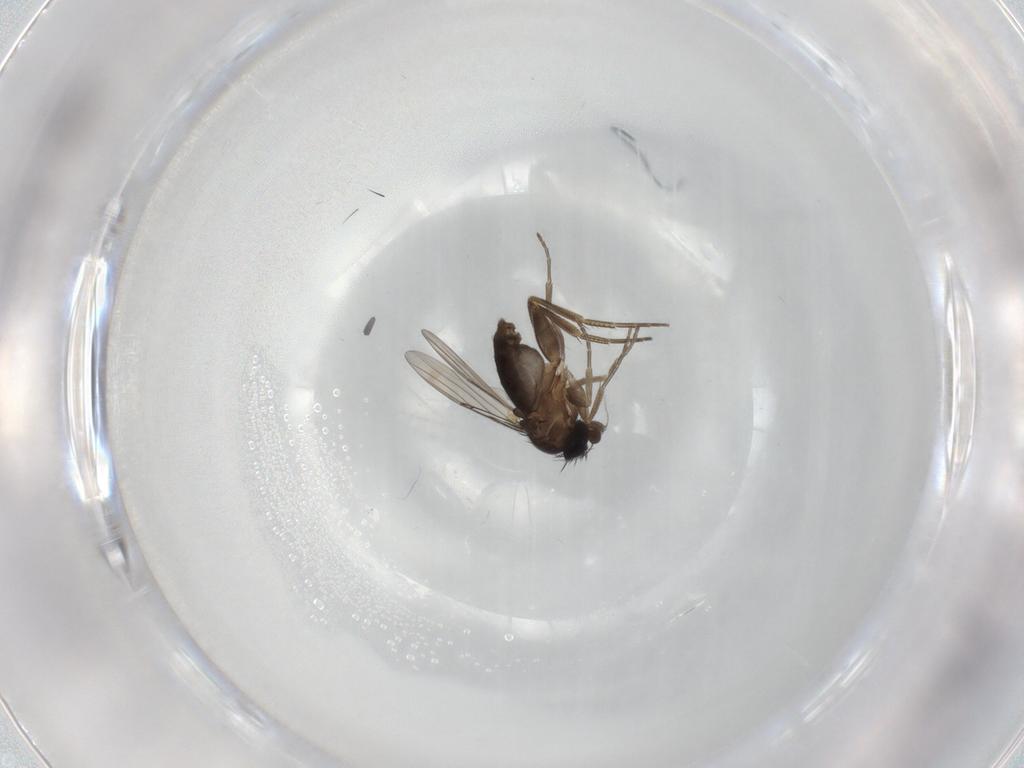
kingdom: Animalia
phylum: Arthropoda
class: Insecta
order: Diptera
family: Phoridae
